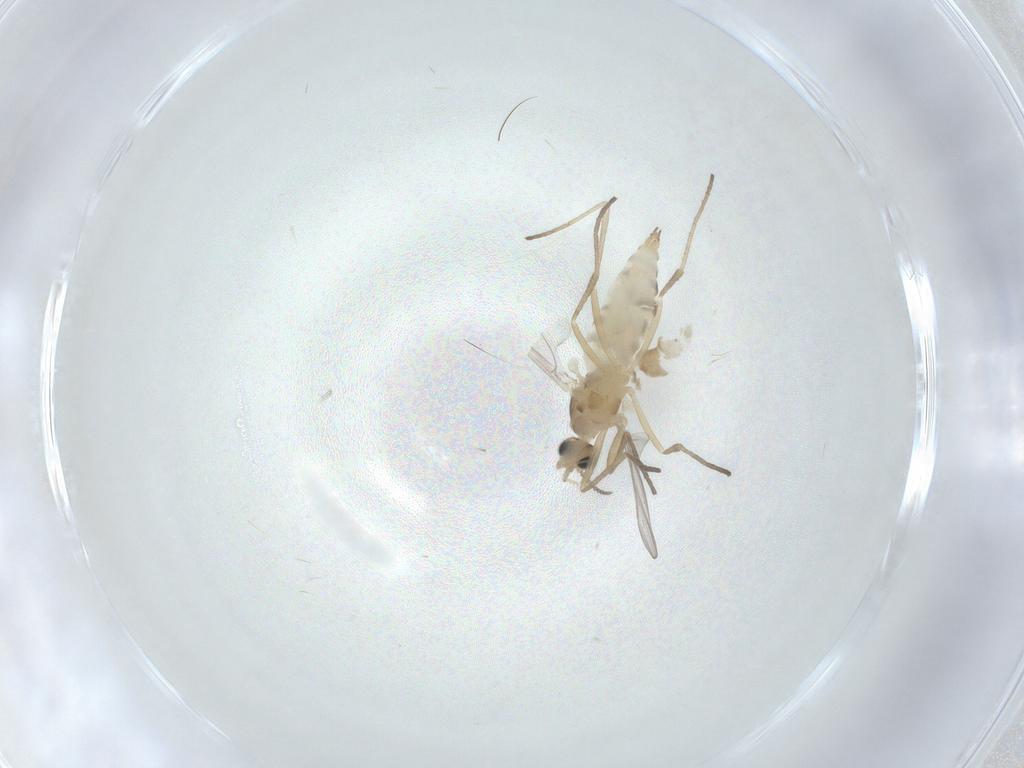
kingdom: Animalia
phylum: Arthropoda
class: Insecta
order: Diptera
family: Cecidomyiidae
